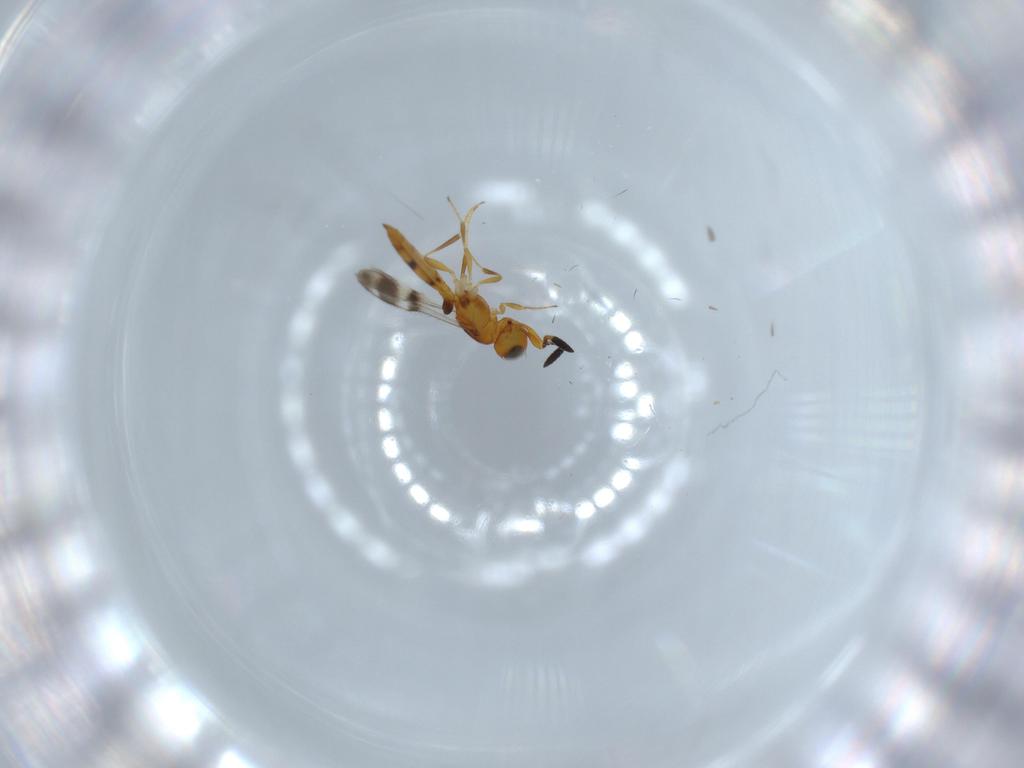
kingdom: Animalia
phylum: Arthropoda
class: Insecta
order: Hymenoptera
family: Scelionidae
